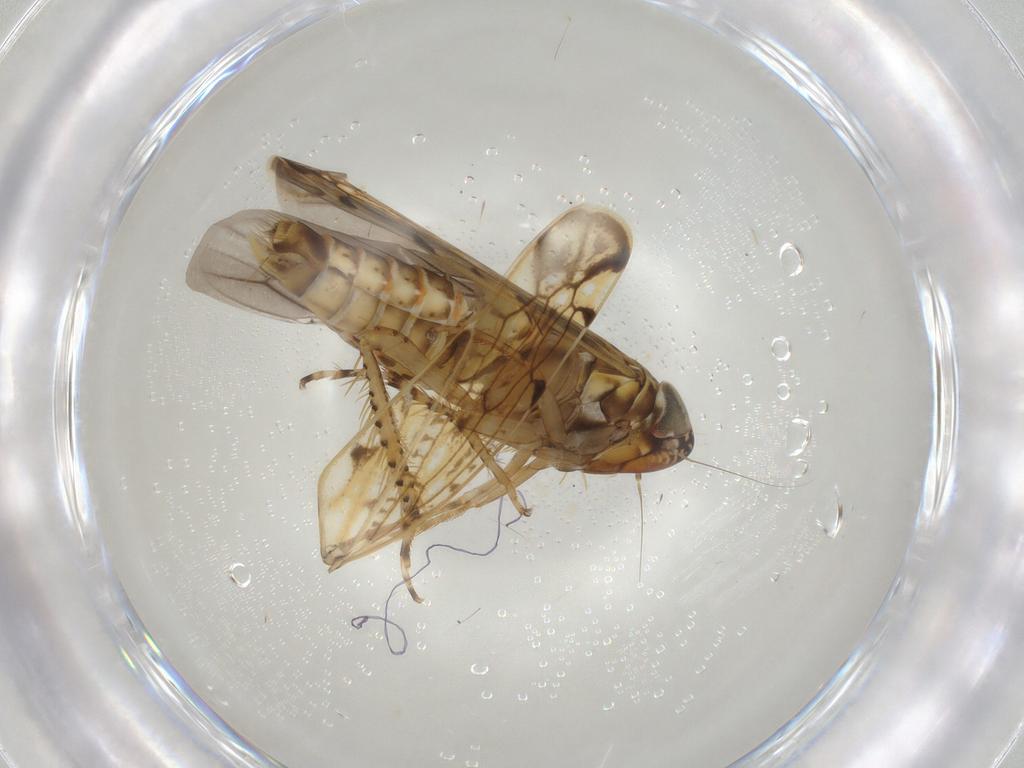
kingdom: Animalia
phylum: Arthropoda
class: Insecta
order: Hemiptera
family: Cicadellidae
